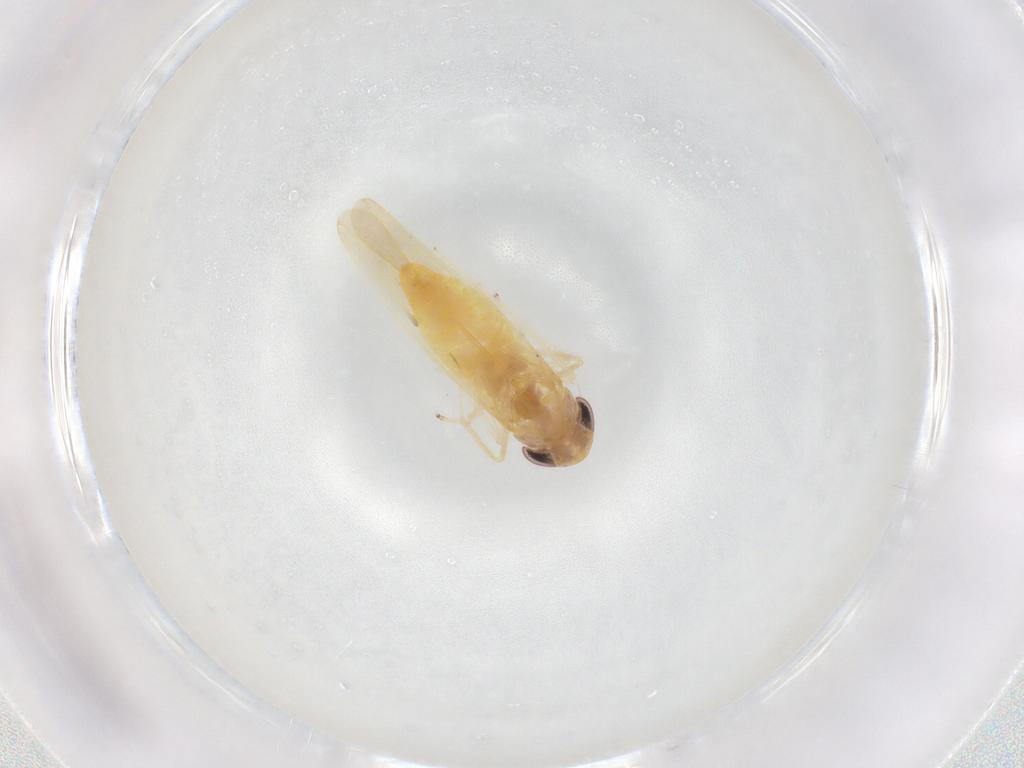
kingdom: Animalia
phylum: Arthropoda
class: Insecta
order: Hemiptera
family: Cicadellidae
